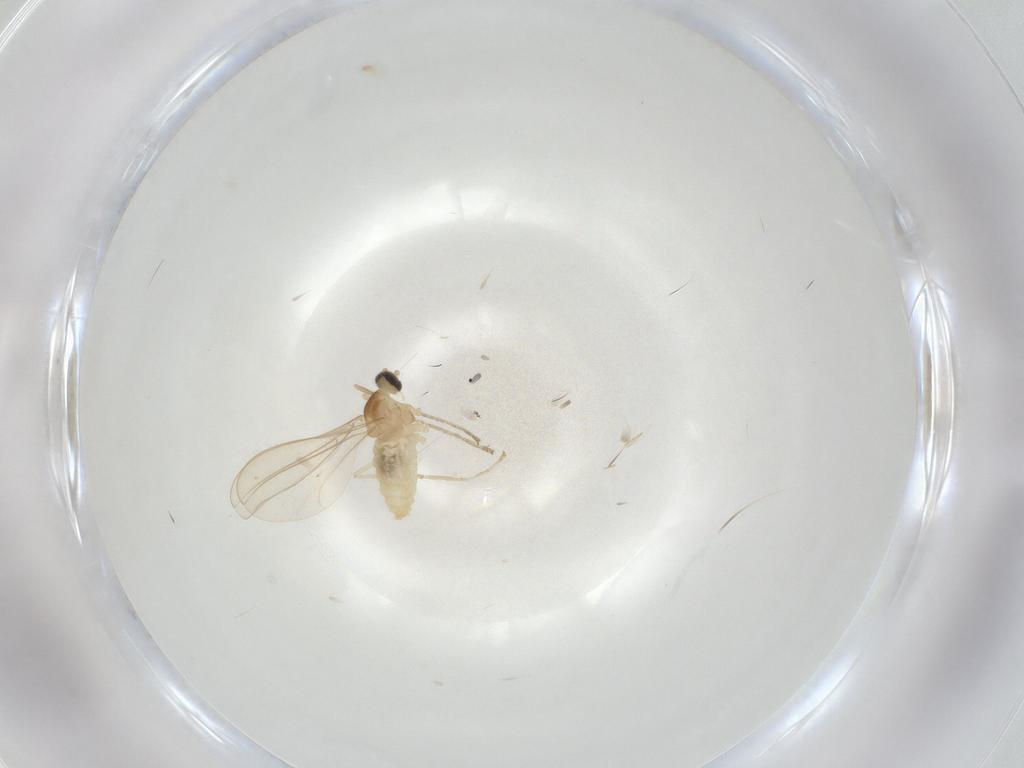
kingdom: Animalia
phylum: Arthropoda
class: Insecta
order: Diptera
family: Cecidomyiidae
